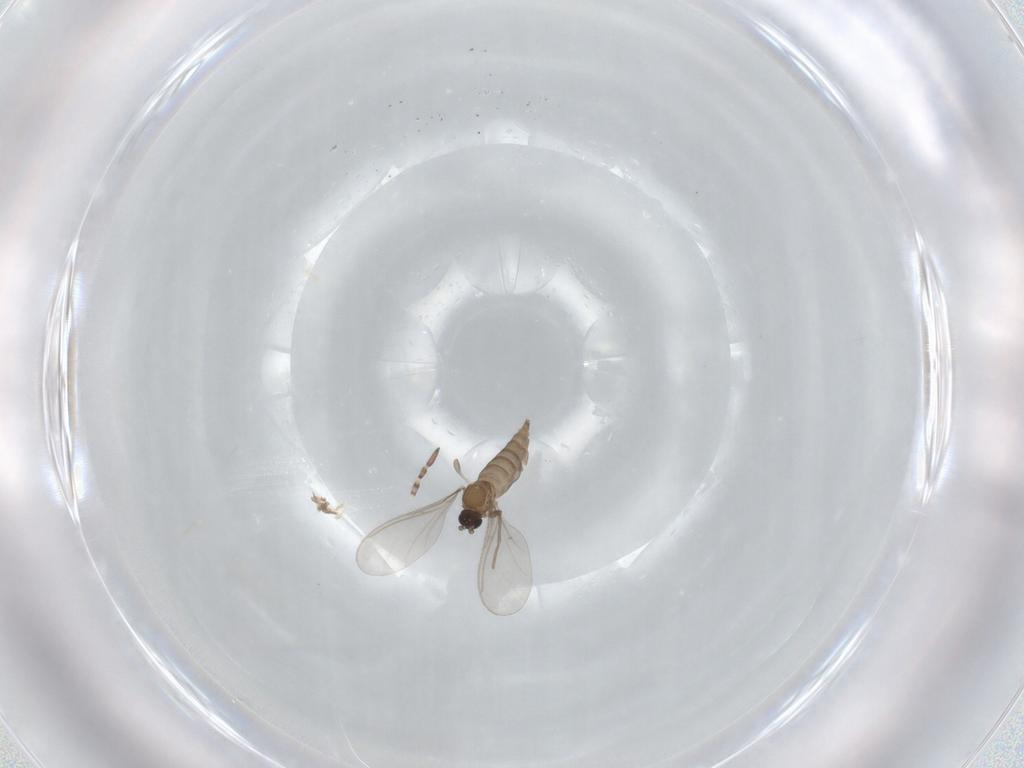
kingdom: Animalia
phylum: Arthropoda
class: Insecta
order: Diptera
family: Sciaridae
